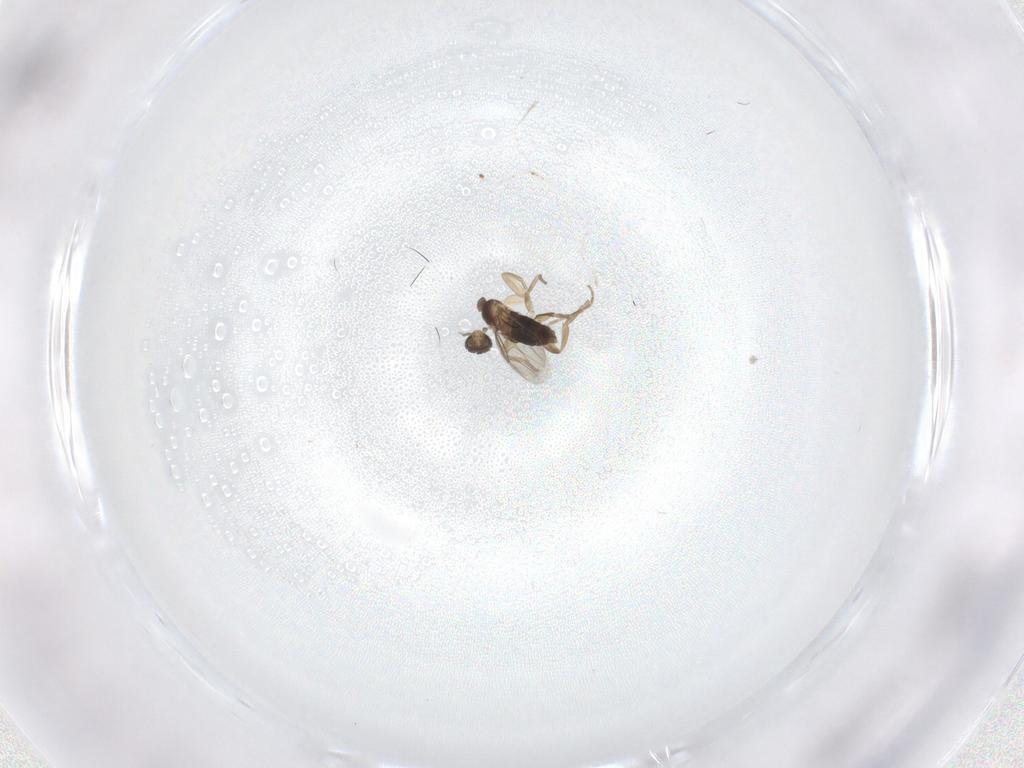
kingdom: Animalia
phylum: Arthropoda
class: Insecta
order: Diptera
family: Phoridae
